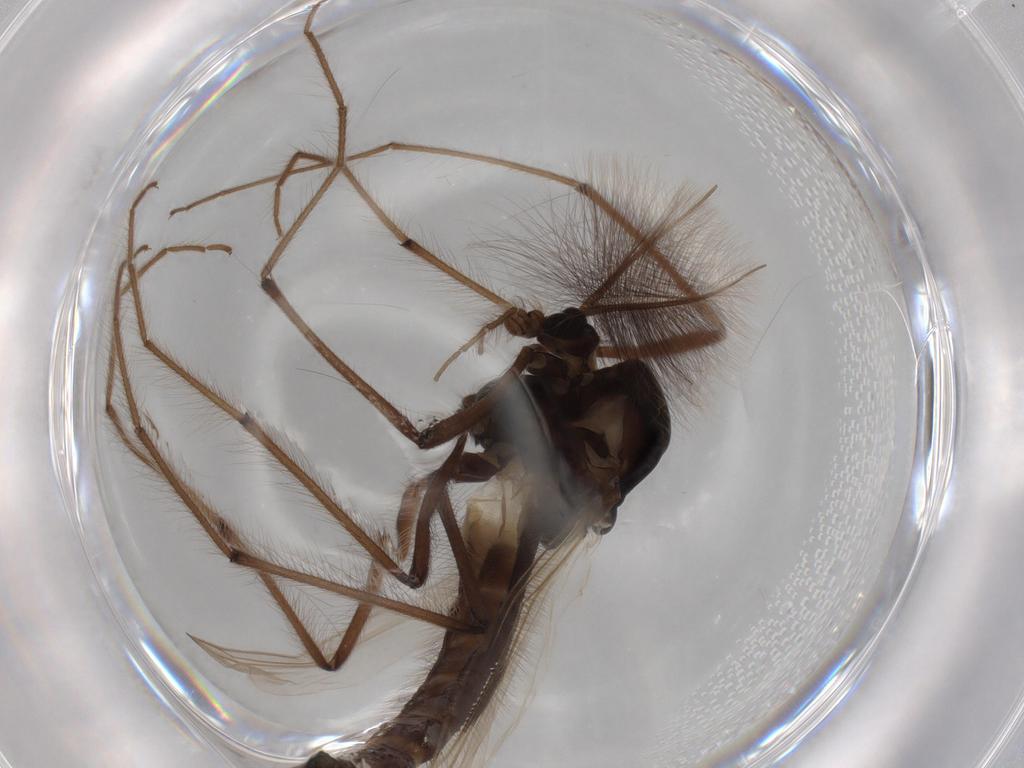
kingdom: Animalia
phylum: Arthropoda
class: Insecta
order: Diptera
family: Chironomidae
